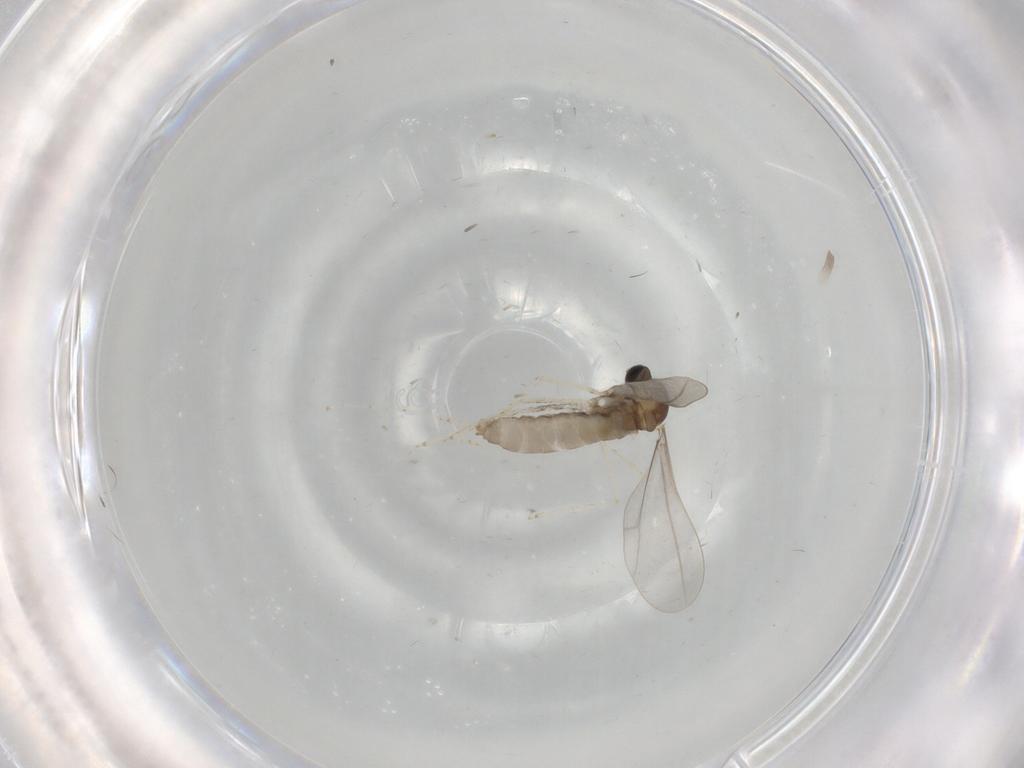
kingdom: Animalia
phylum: Arthropoda
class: Insecta
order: Diptera
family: Cecidomyiidae
